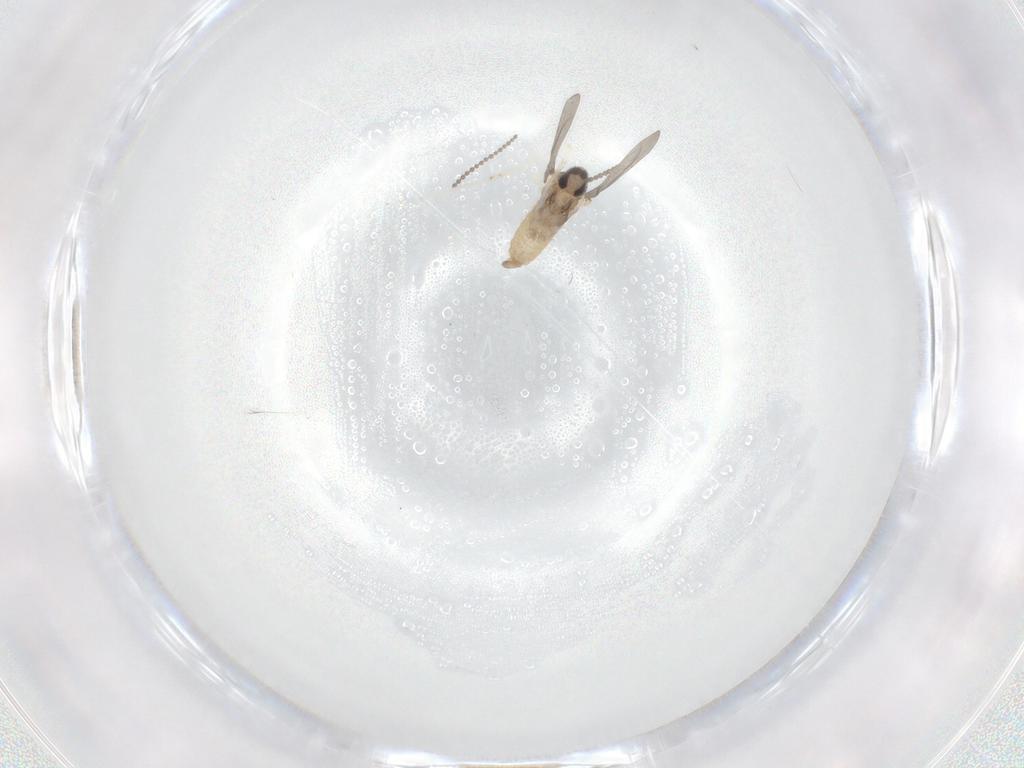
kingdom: Animalia
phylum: Arthropoda
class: Insecta
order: Diptera
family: Cecidomyiidae
